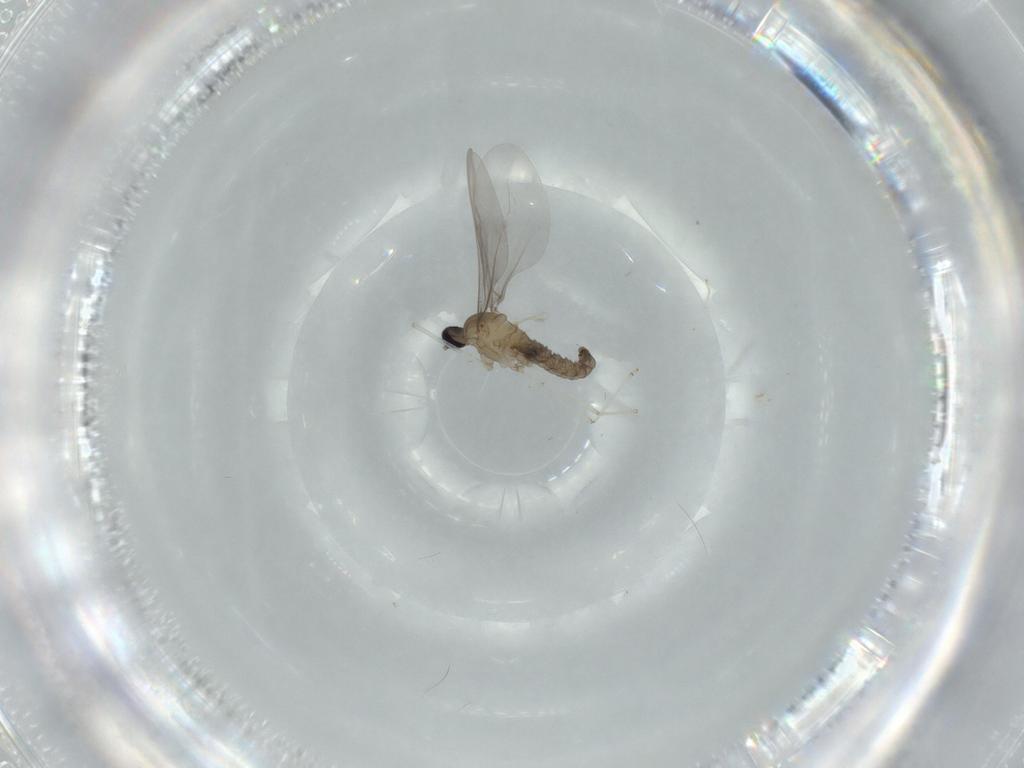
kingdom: Animalia
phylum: Arthropoda
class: Insecta
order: Diptera
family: Cecidomyiidae
